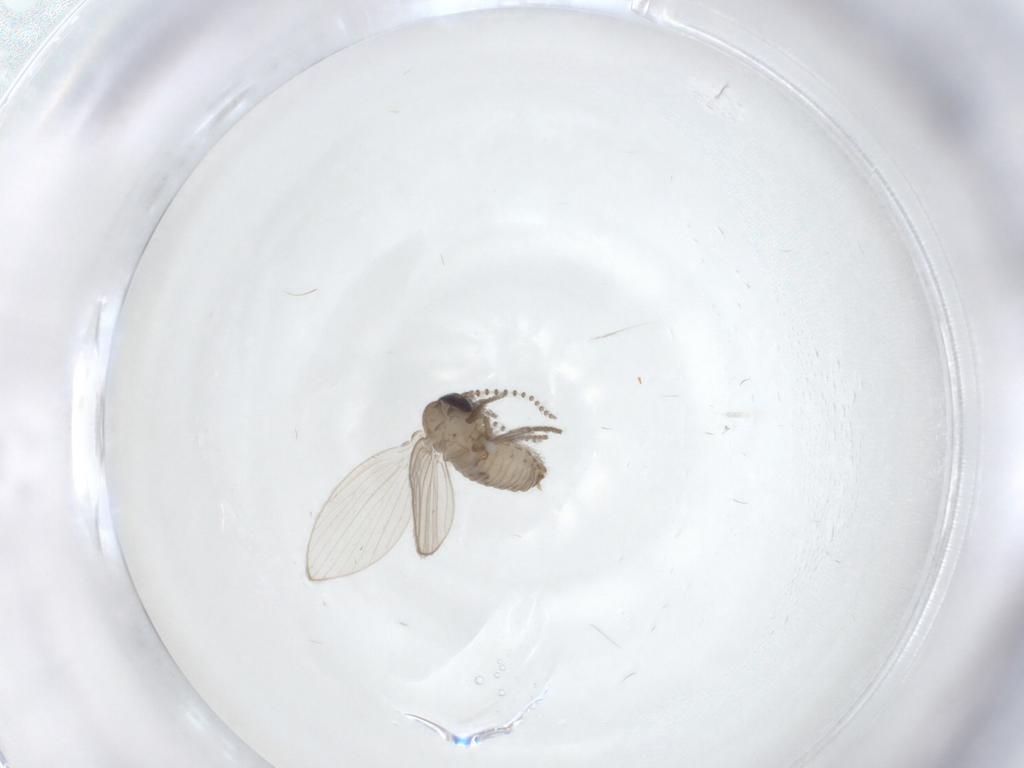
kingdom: Animalia
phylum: Arthropoda
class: Insecta
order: Diptera
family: Psychodidae
